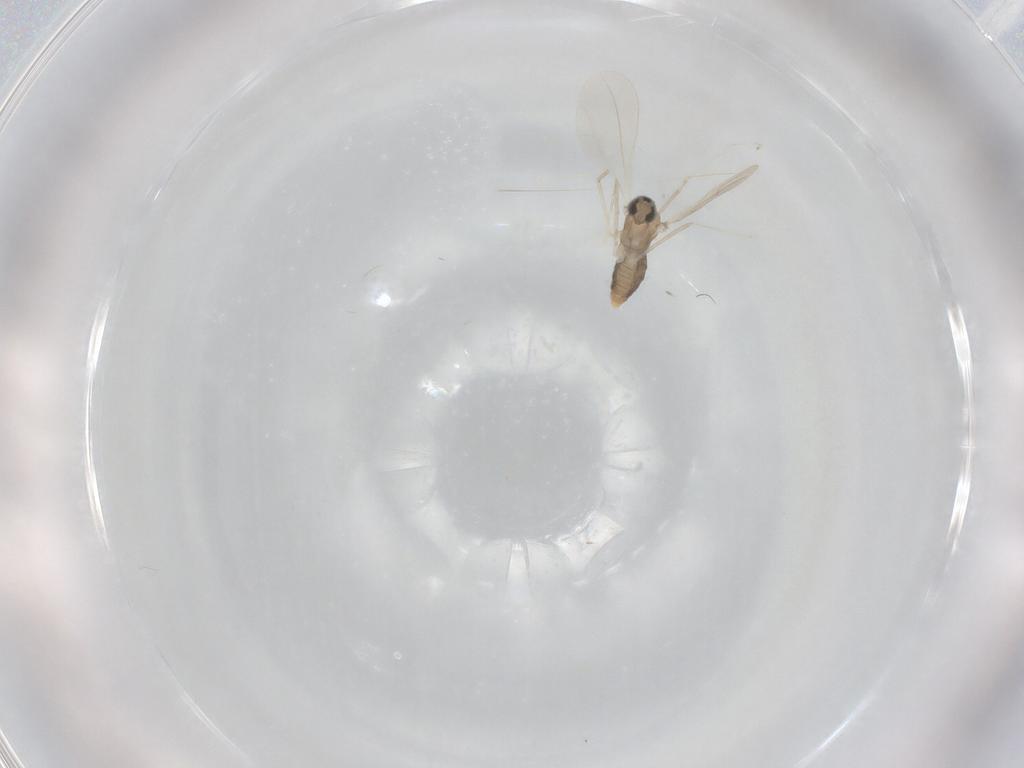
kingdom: Animalia
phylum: Arthropoda
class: Insecta
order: Diptera
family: Cecidomyiidae
